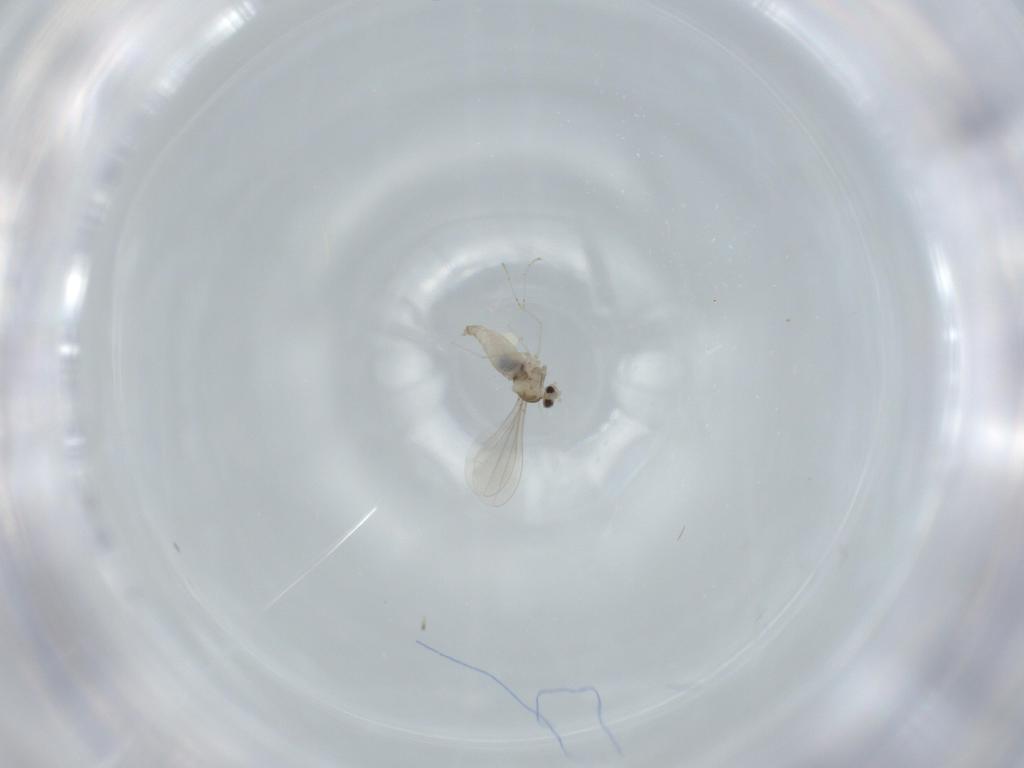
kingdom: Animalia
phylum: Arthropoda
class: Insecta
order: Diptera
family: Cecidomyiidae
